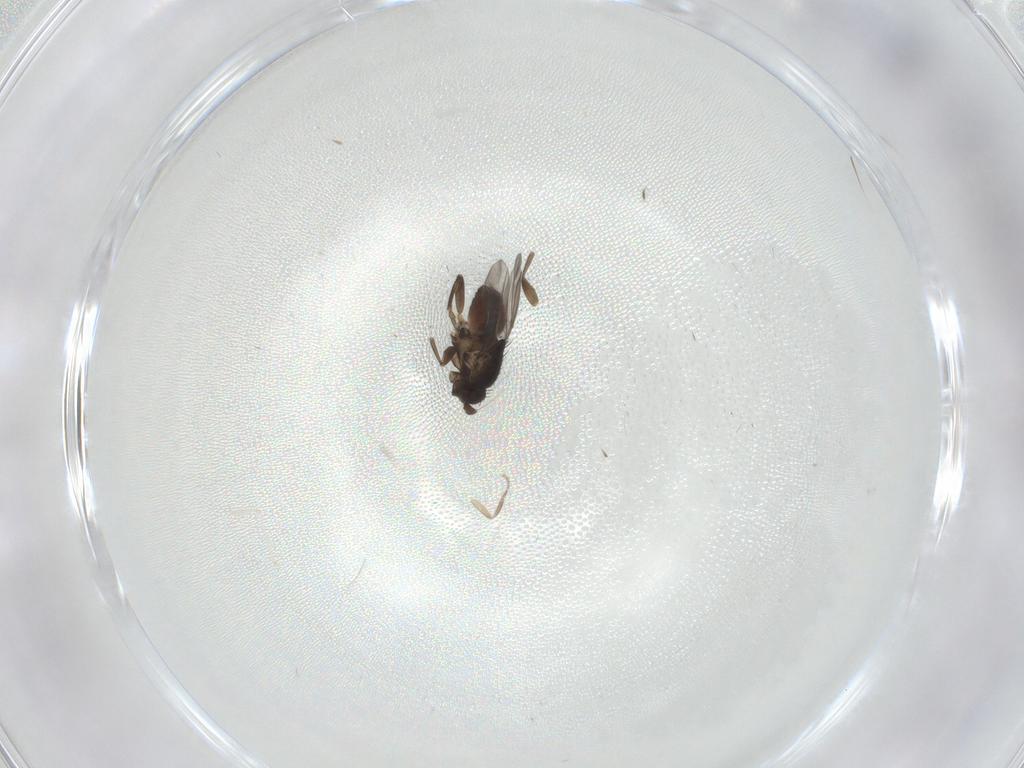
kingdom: Animalia
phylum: Arthropoda
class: Insecta
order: Diptera
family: Sphaeroceridae
